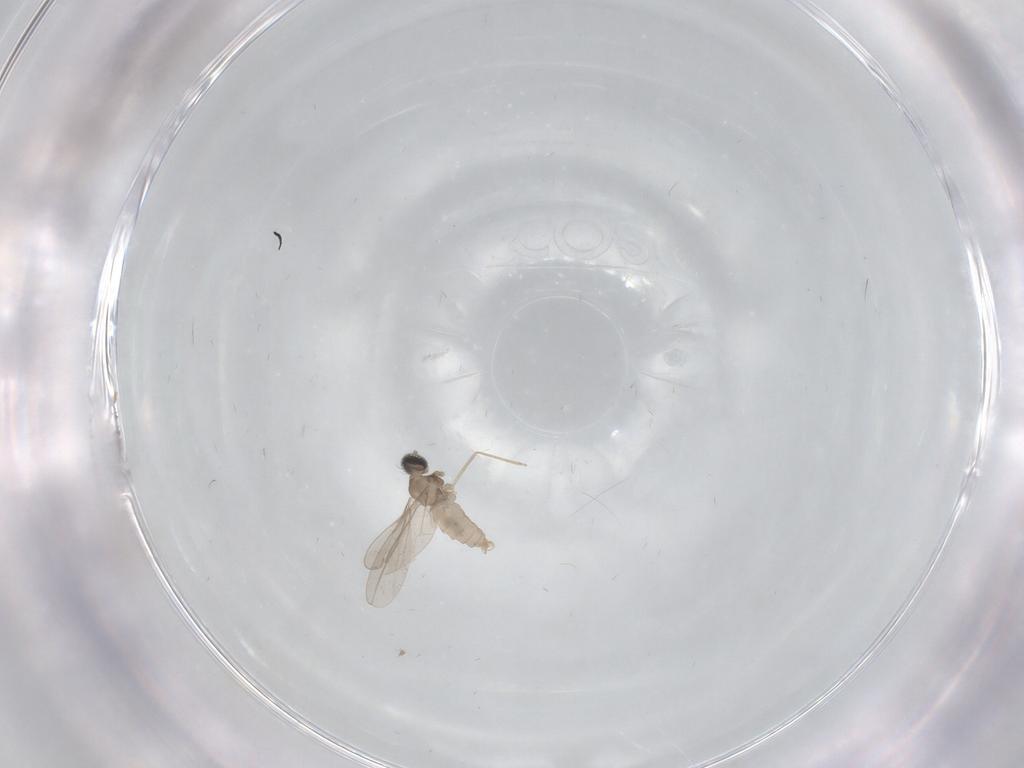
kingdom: Animalia
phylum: Arthropoda
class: Insecta
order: Diptera
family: Limoniidae
